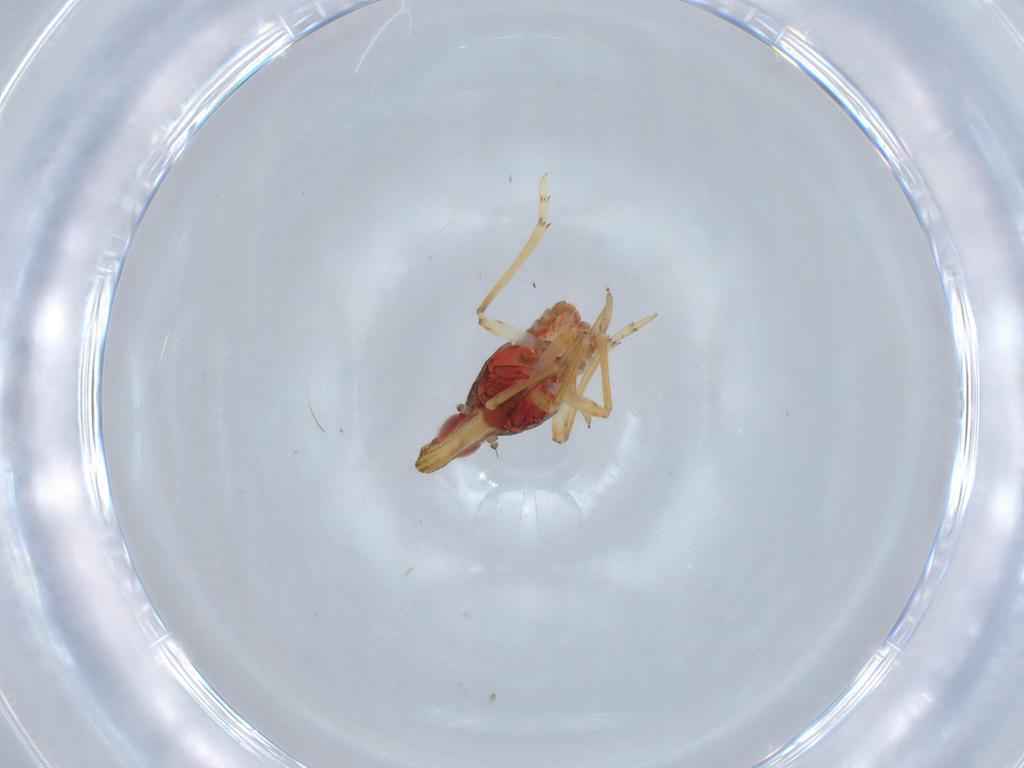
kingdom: Animalia
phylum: Arthropoda
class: Insecta
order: Hemiptera
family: Fulgoroidea_incertae_sedis
